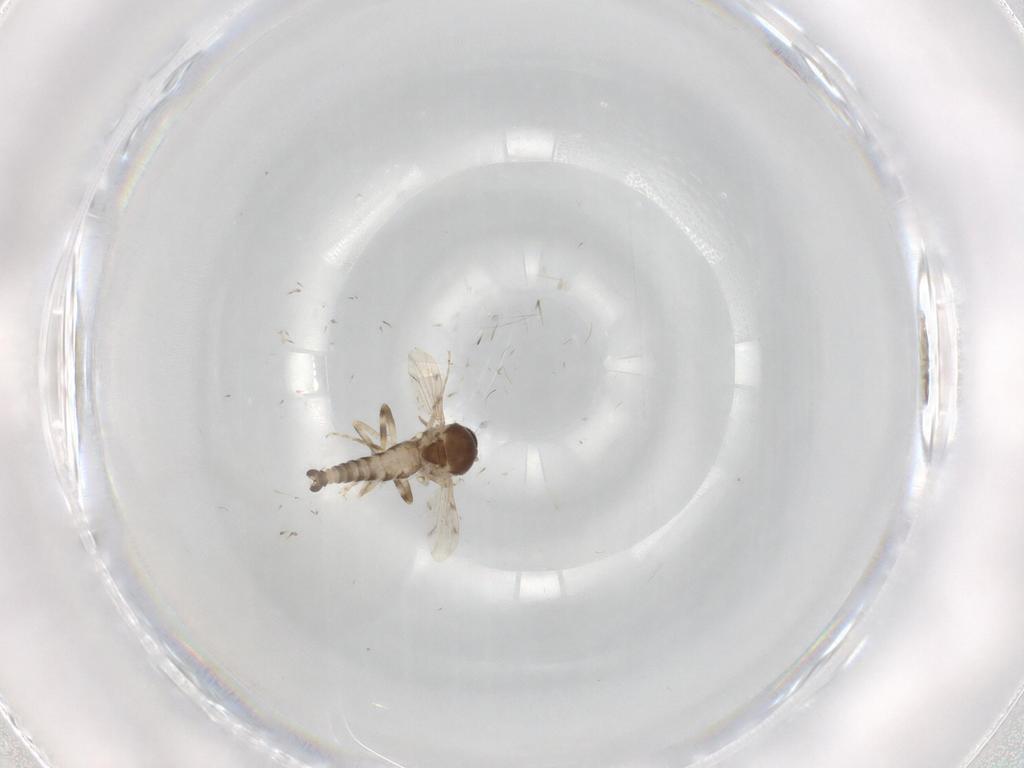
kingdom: Animalia
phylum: Arthropoda
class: Insecta
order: Diptera
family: Ceratopogonidae
